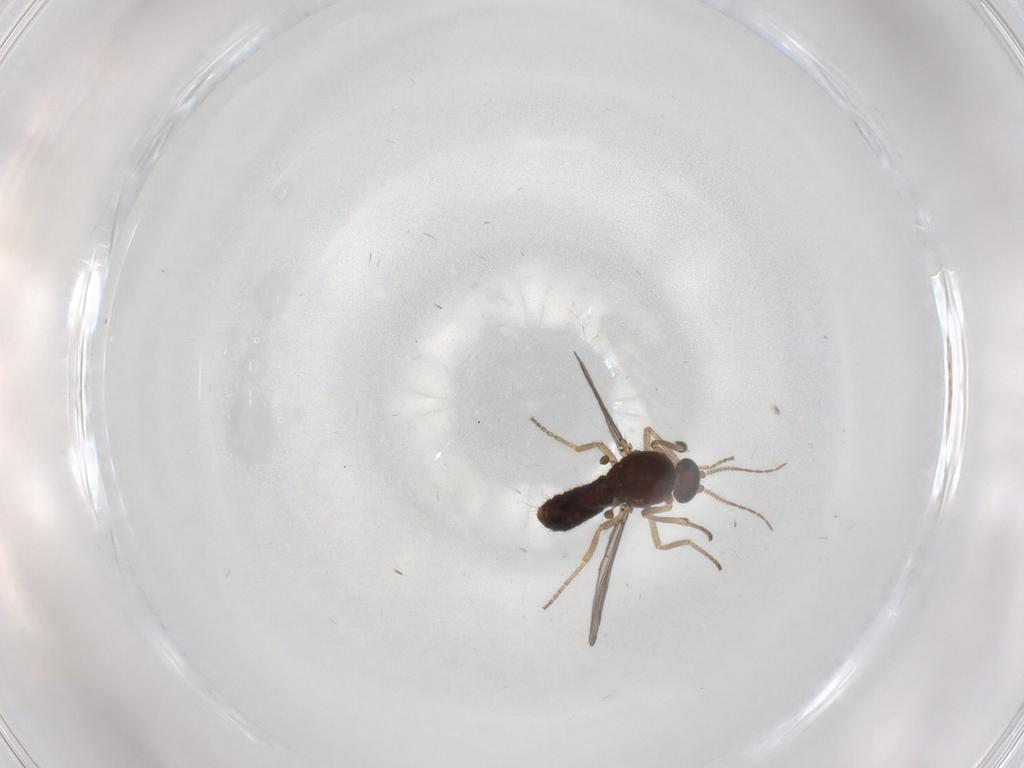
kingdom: Animalia
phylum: Arthropoda
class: Insecta
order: Diptera
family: Ceratopogonidae
